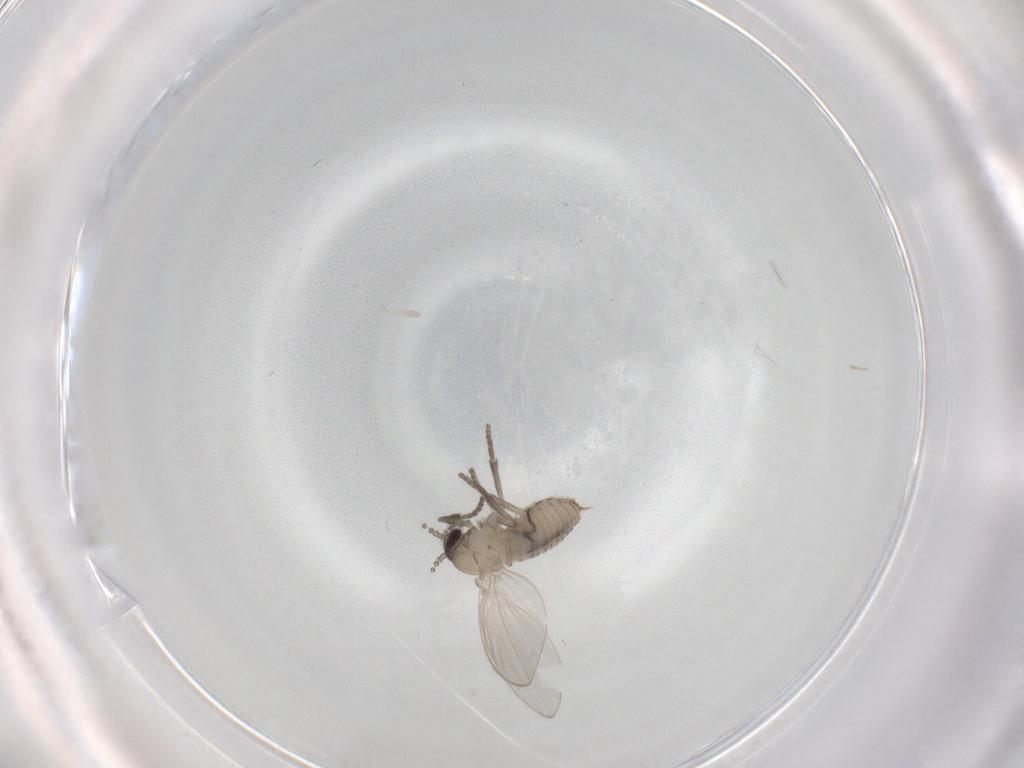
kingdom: Animalia
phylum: Arthropoda
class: Insecta
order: Diptera
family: Psychodidae
